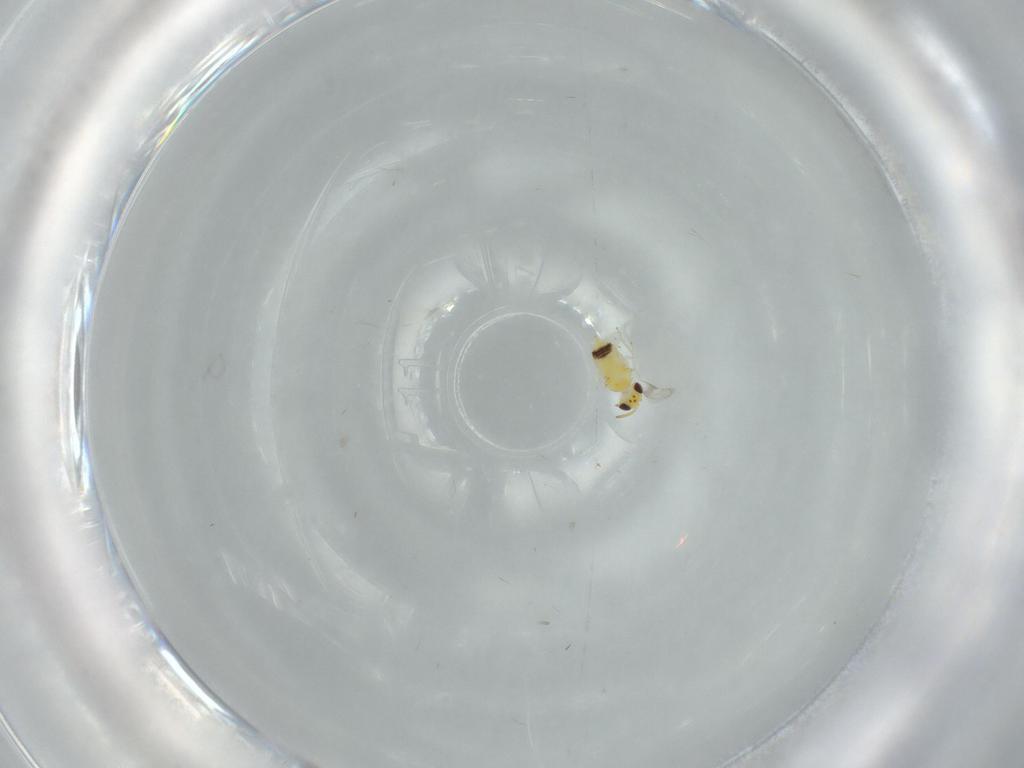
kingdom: Animalia
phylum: Arthropoda
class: Insecta
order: Hymenoptera
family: Aphelinidae
